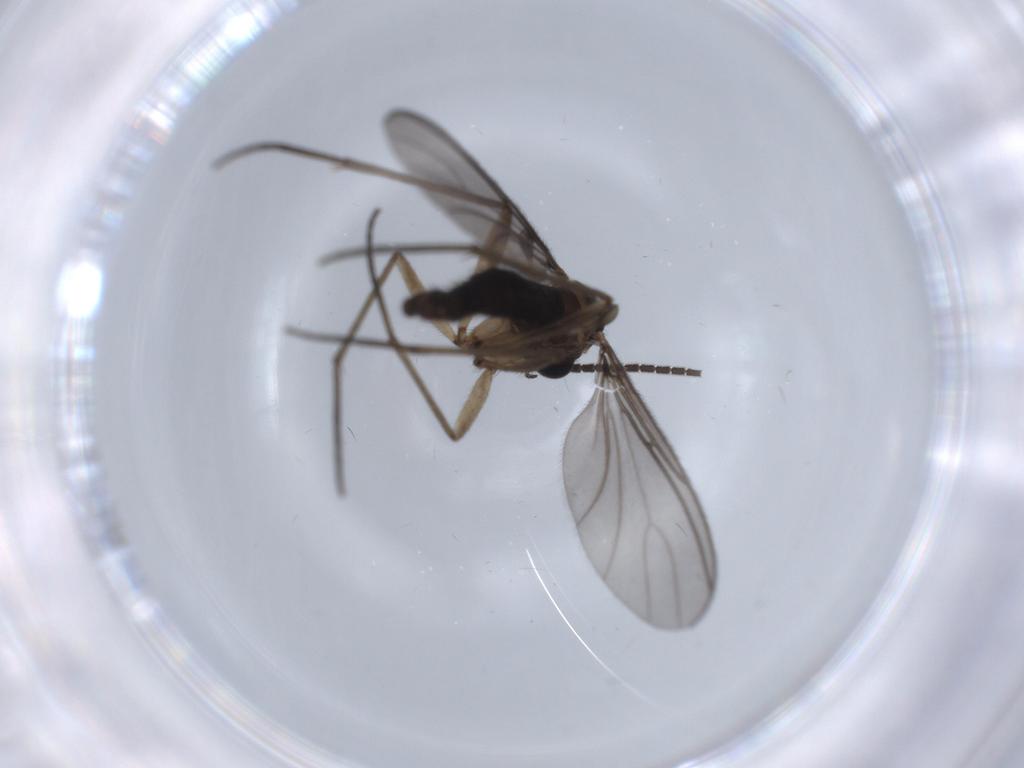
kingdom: Animalia
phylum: Arthropoda
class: Insecta
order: Diptera
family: Sciaridae
